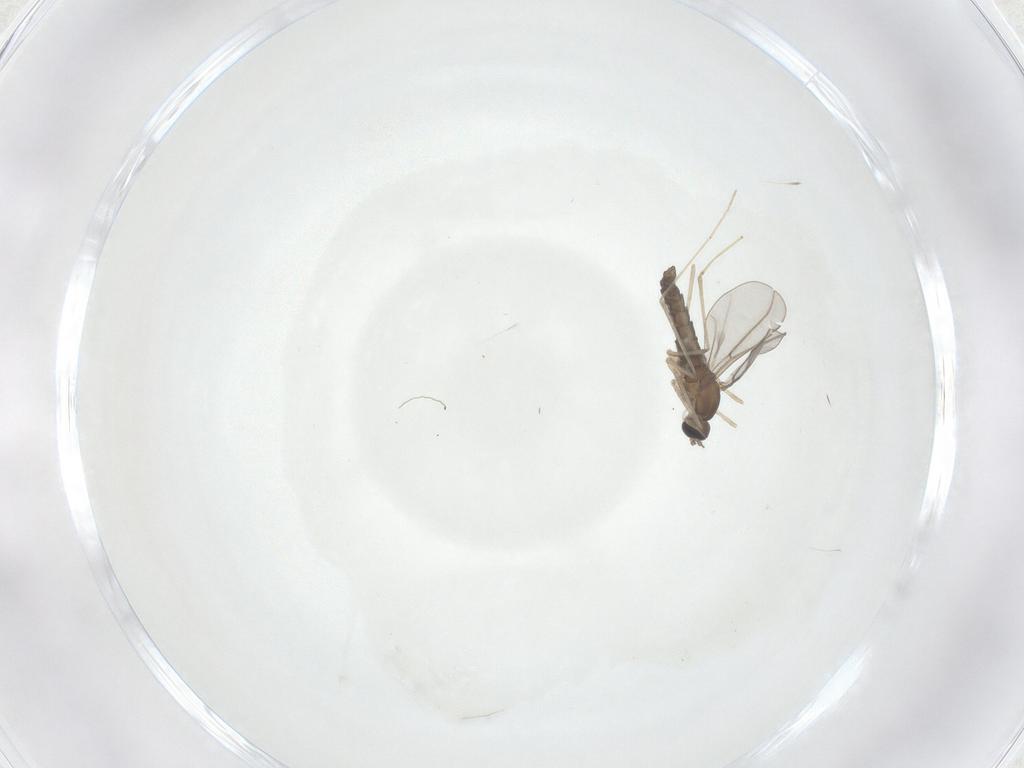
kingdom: Animalia
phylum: Arthropoda
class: Insecta
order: Diptera
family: Cecidomyiidae
